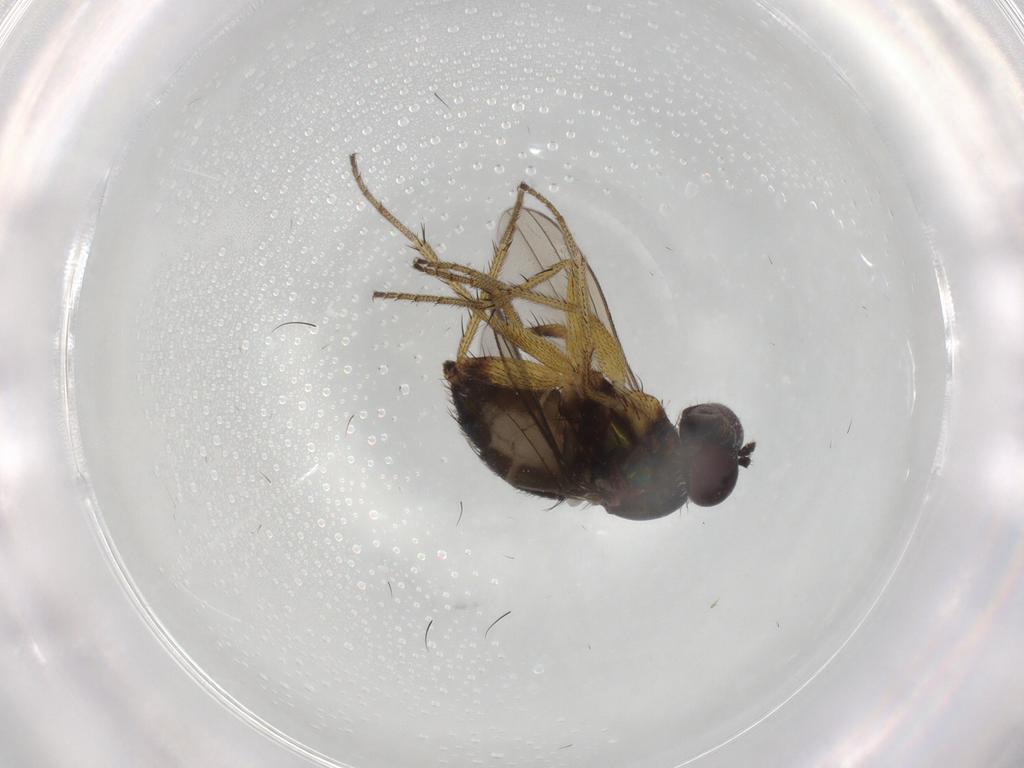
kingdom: Animalia
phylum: Arthropoda
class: Insecta
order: Diptera
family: Dolichopodidae
